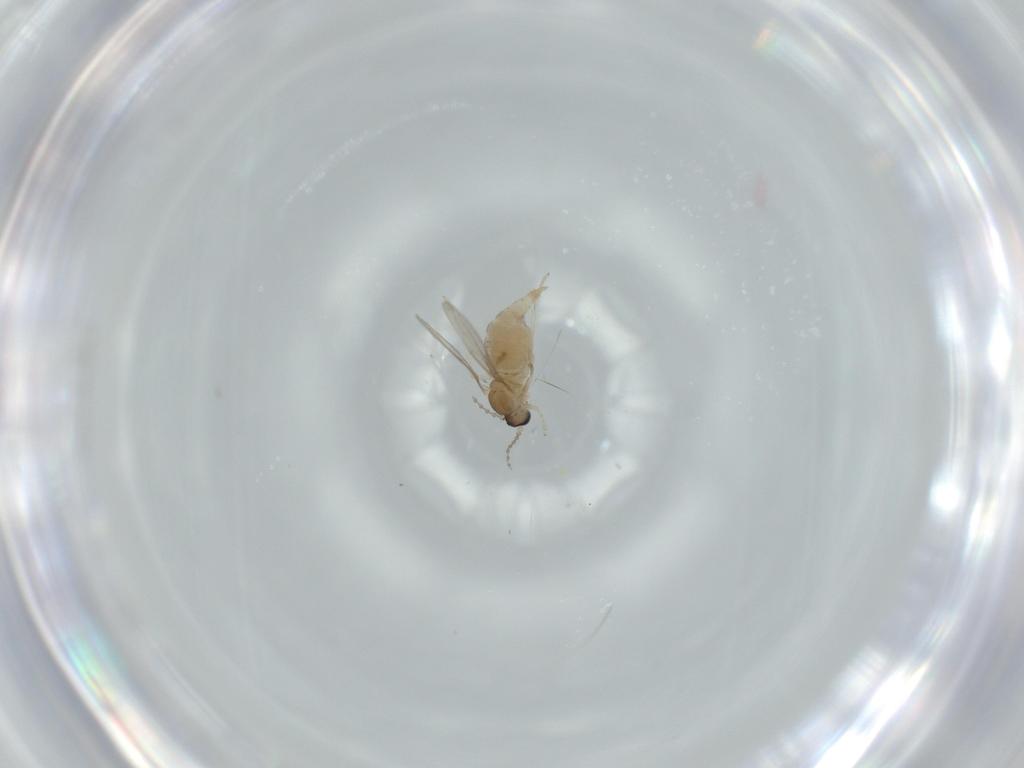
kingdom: Animalia
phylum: Arthropoda
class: Insecta
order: Diptera
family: Cecidomyiidae
